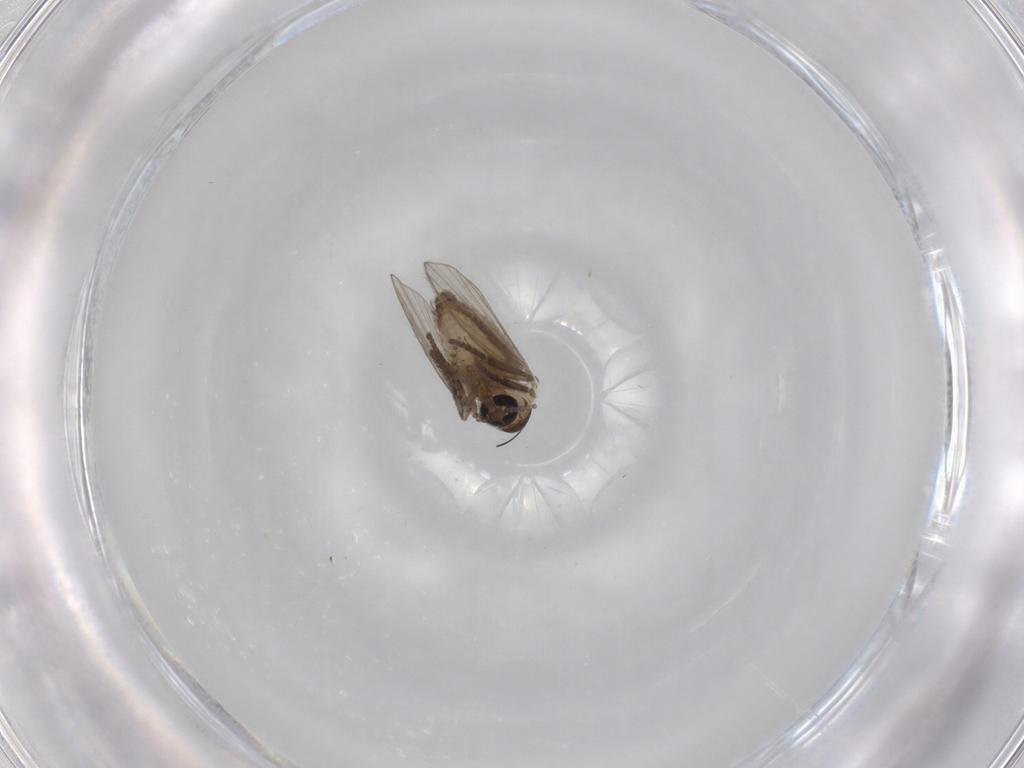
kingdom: Animalia
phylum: Arthropoda
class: Insecta
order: Diptera
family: Psychodidae
